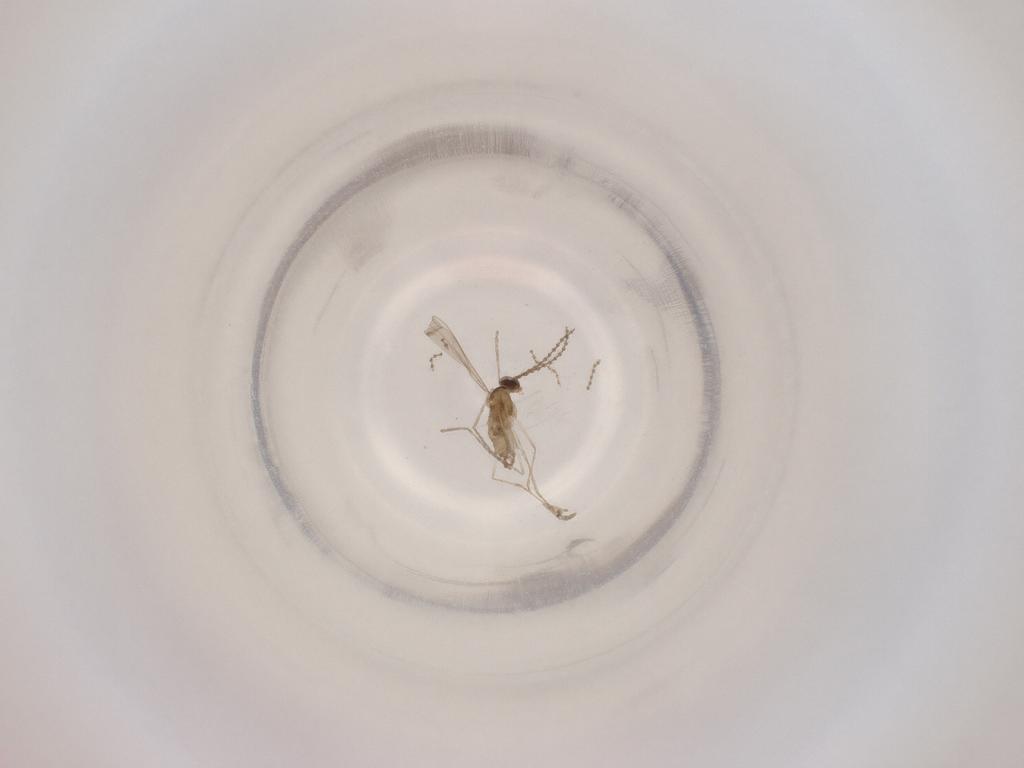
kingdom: Animalia
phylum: Arthropoda
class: Insecta
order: Diptera
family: Cecidomyiidae
